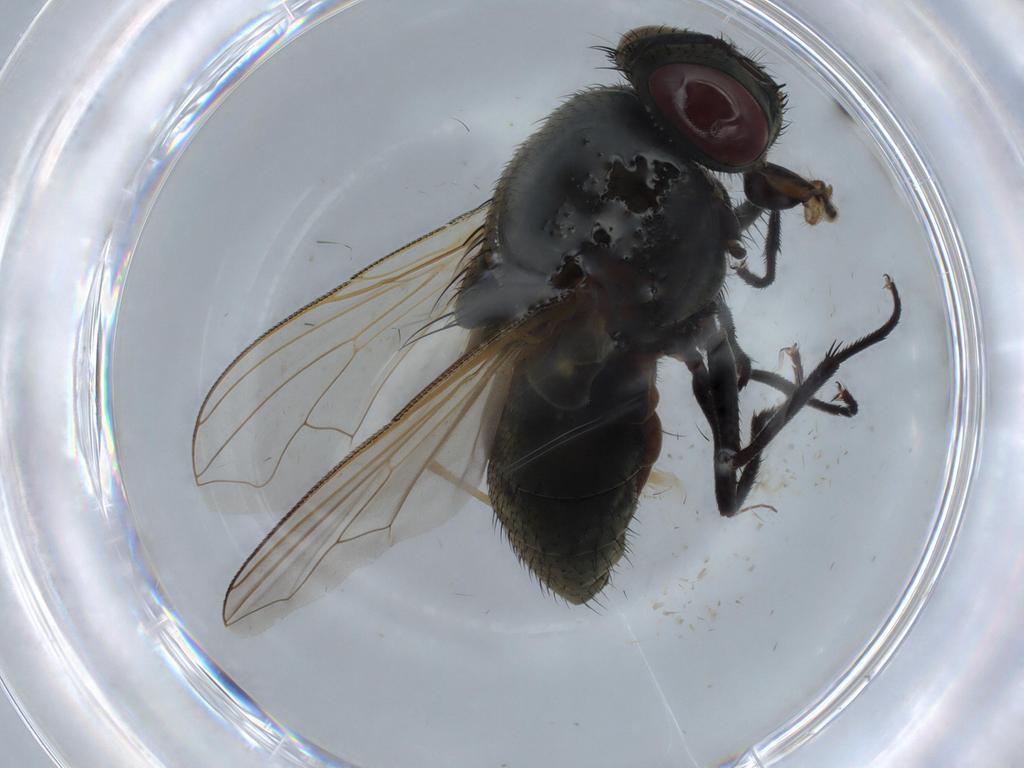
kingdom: Animalia
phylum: Arthropoda
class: Insecta
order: Diptera
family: Cecidomyiidae
